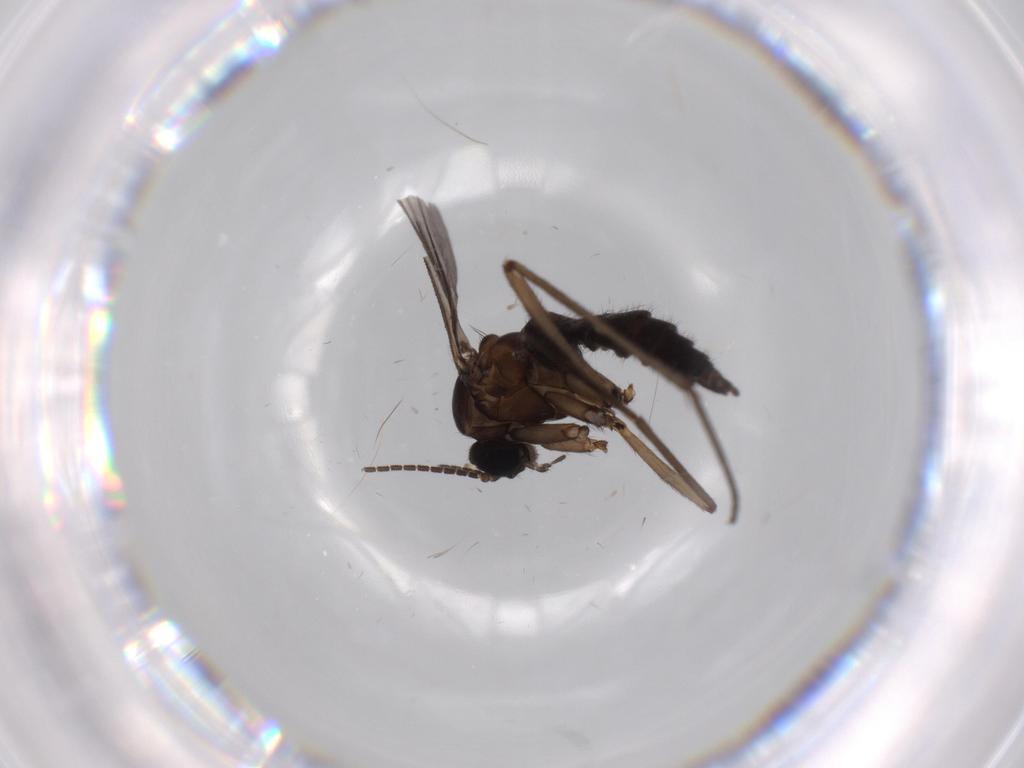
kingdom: Animalia
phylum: Arthropoda
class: Insecta
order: Diptera
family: Sciaridae
